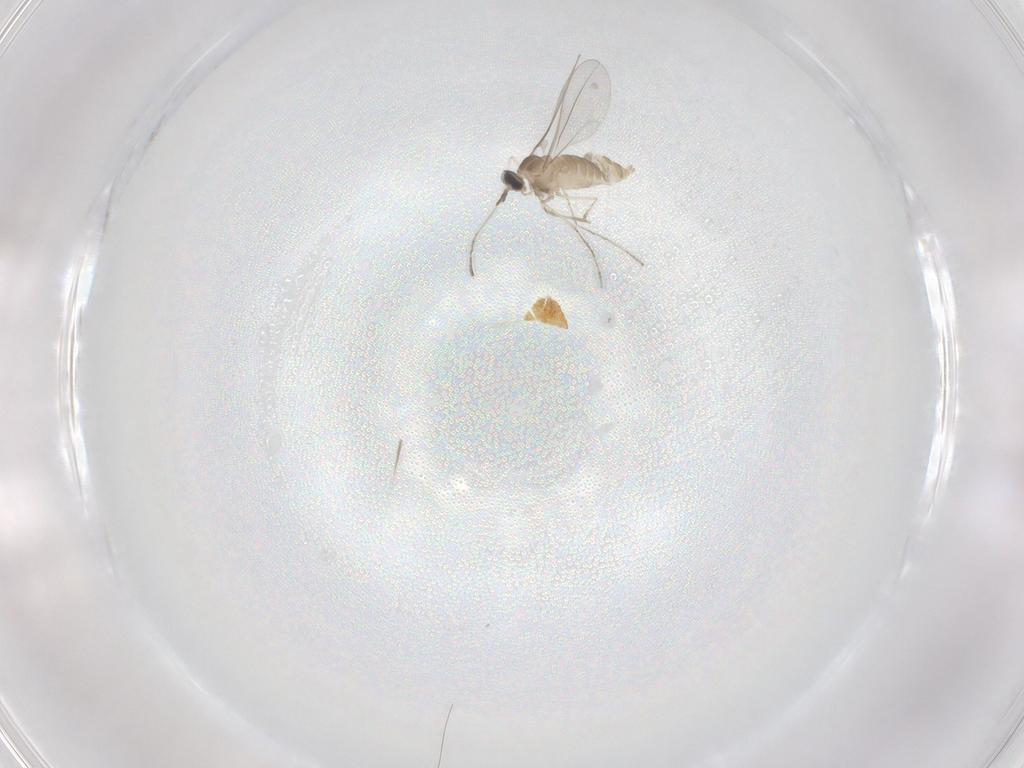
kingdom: Animalia
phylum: Arthropoda
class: Insecta
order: Diptera
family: Cecidomyiidae
